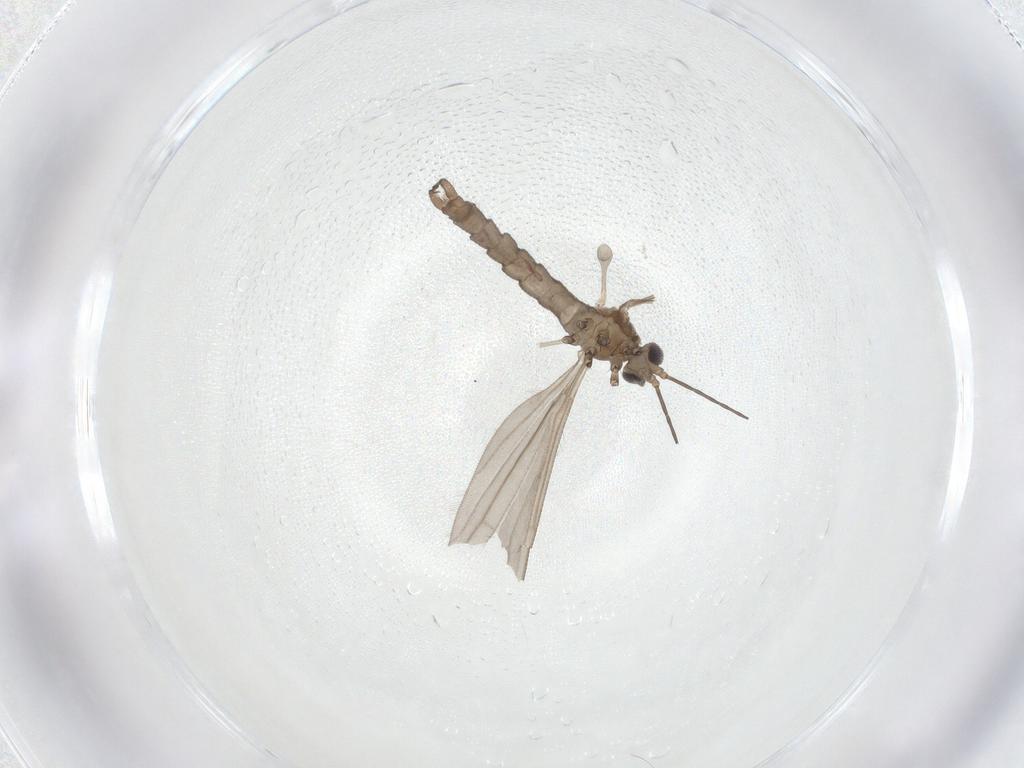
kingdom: Animalia
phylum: Arthropoda
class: Insecta
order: Diptera
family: Limoniidae
